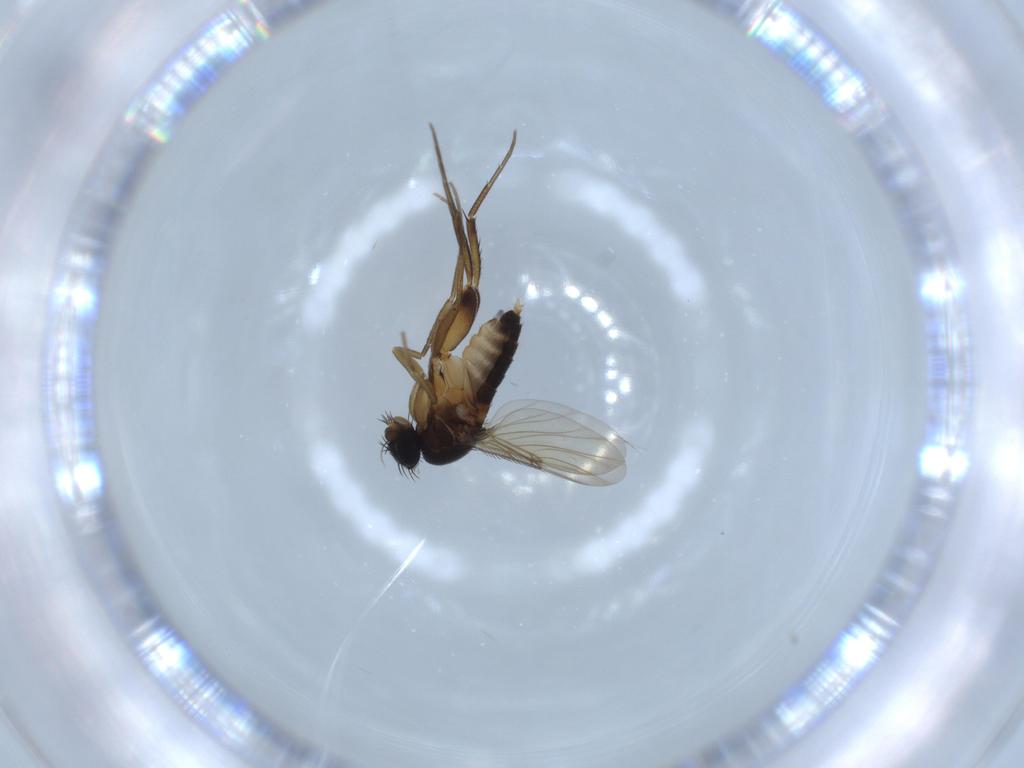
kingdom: Animalia
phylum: Arthropoda
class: Insecta
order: Diptera
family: Phoridae
